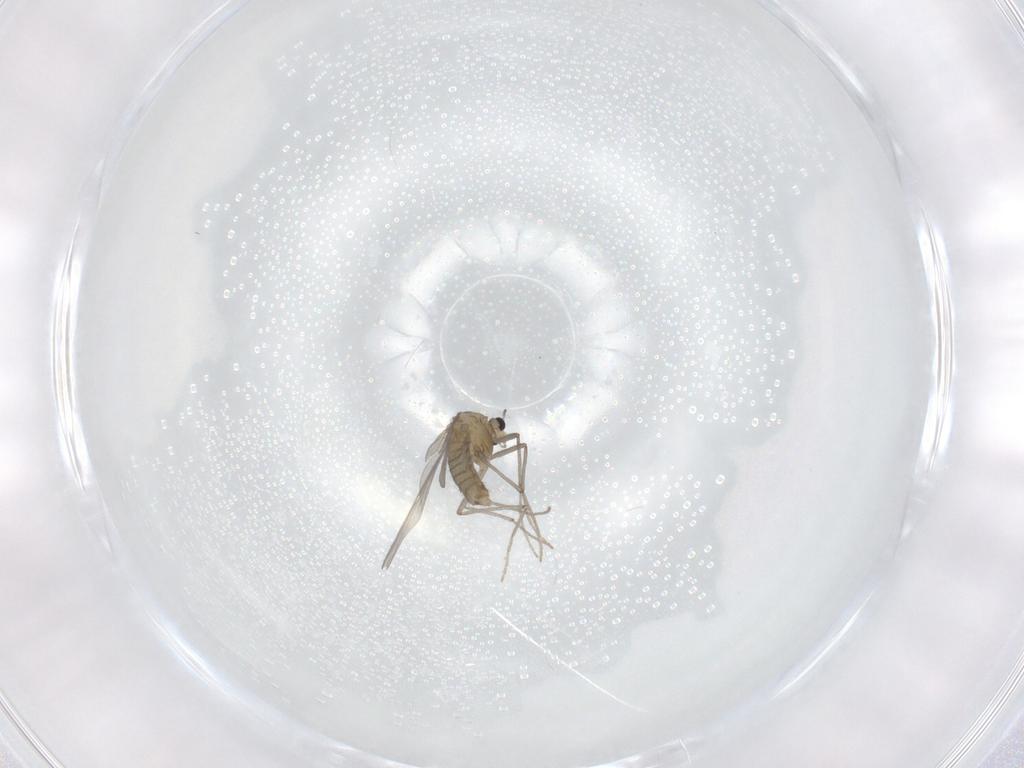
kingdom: Animalia
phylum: Arthropoda
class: Insecta
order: Diptera
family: Chironomidae
